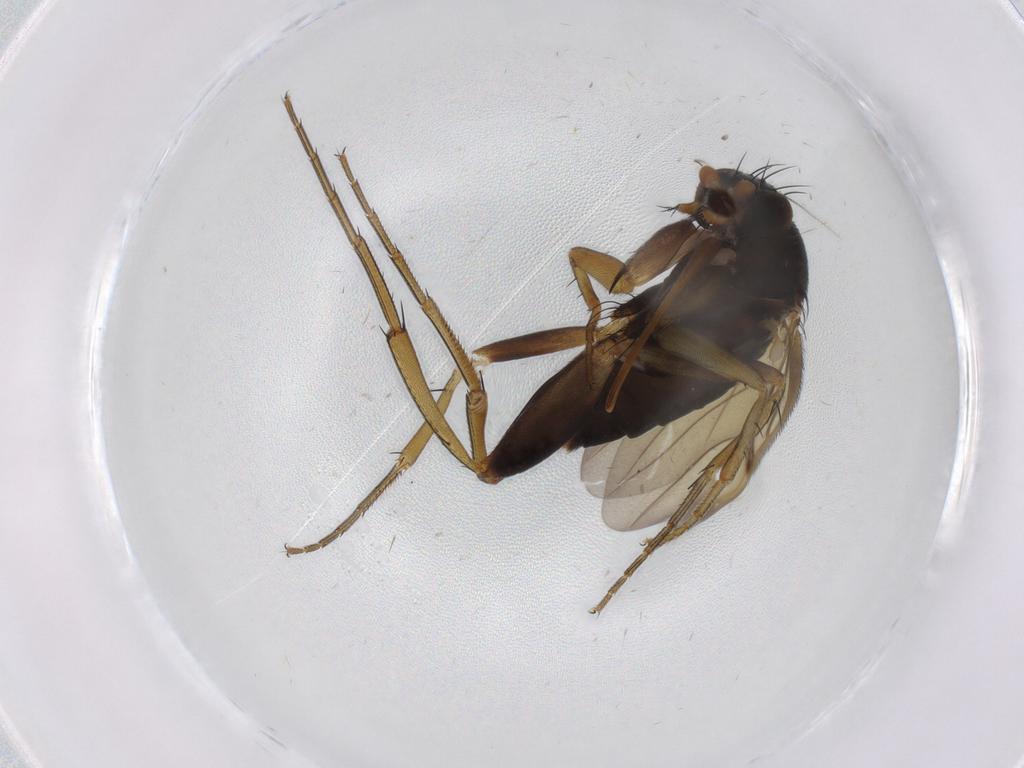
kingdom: Animalia
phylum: Arthropoda
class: Insecta
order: Diptera
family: Phoridae
